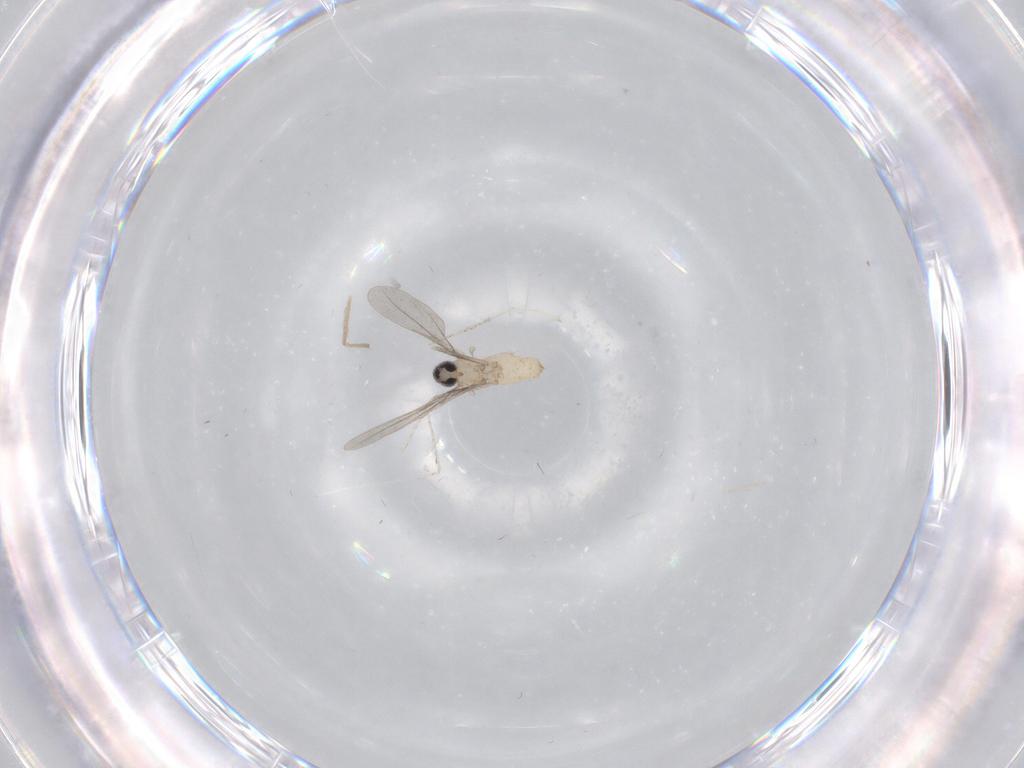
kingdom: Animalia
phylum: Arthropoda
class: Insecta
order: Diptera
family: Cecidomyiidae
